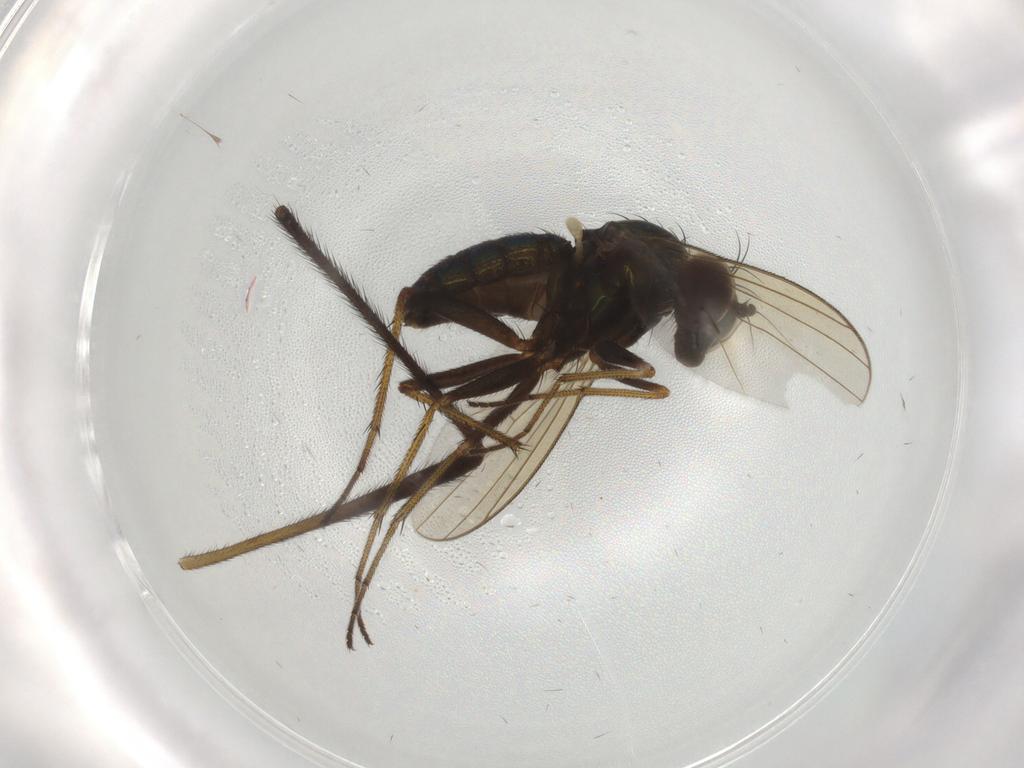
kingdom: Animalia
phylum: Arthropoda
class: Insecta
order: Diptera
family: Dolichopodidae
